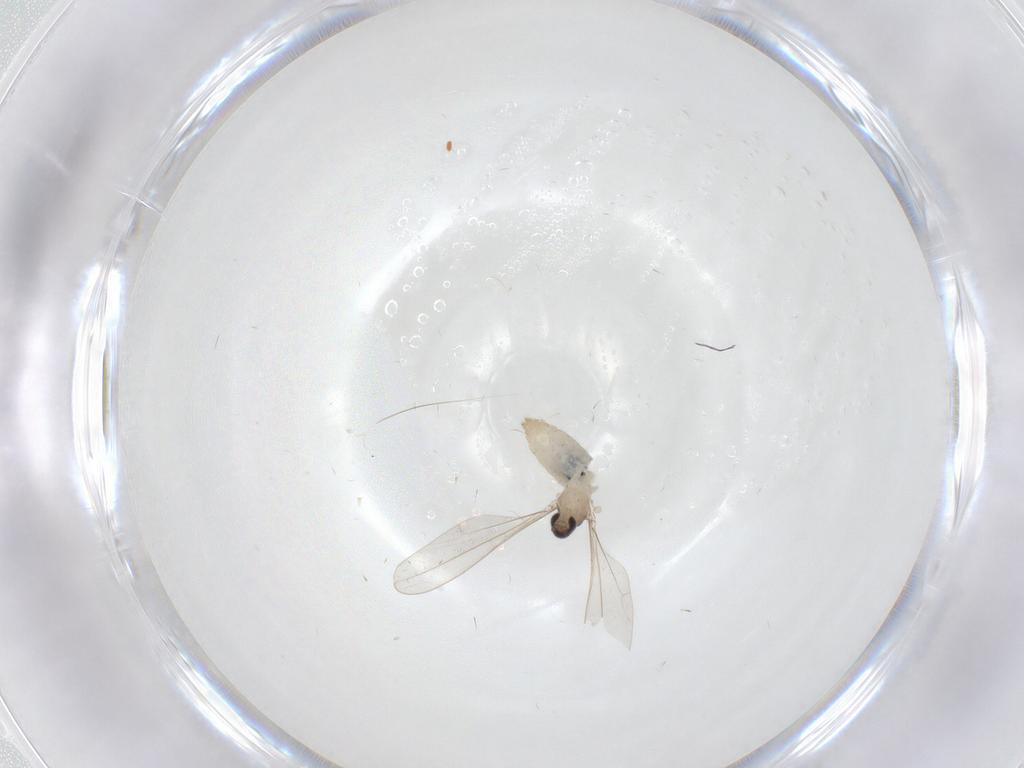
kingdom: Animalia
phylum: Arthropoda
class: Insecta
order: Diptera
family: Cecidomyiidae
